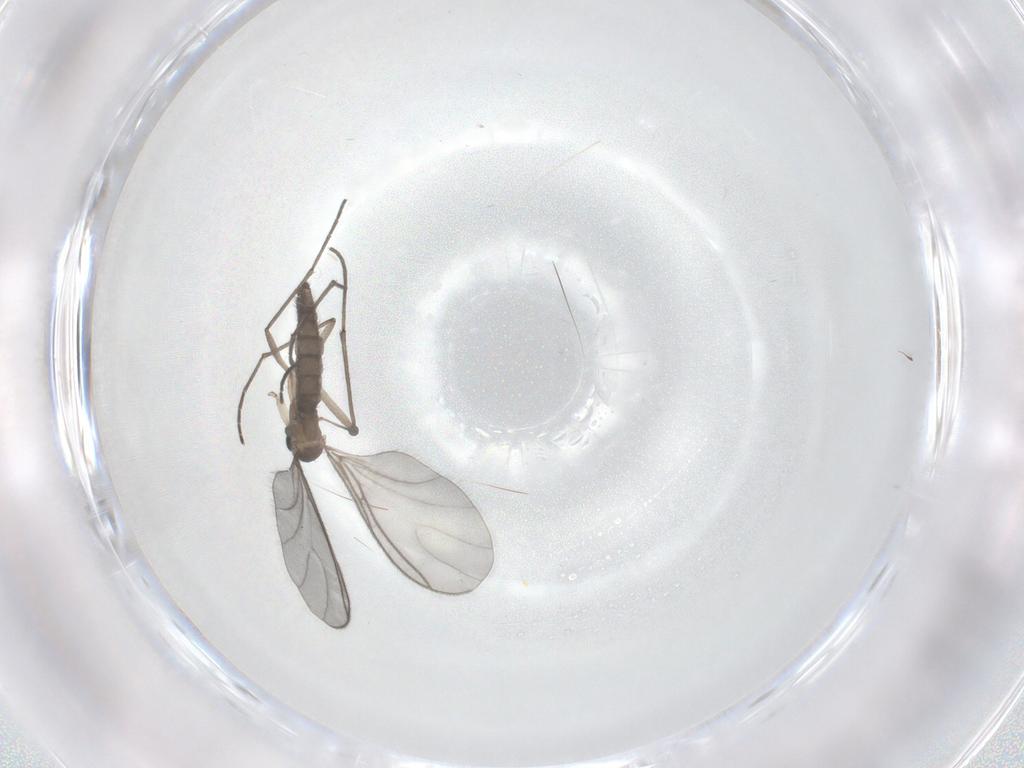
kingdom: Animalia
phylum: Arthropoda
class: Insecta
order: Diptera
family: Sciaridae
